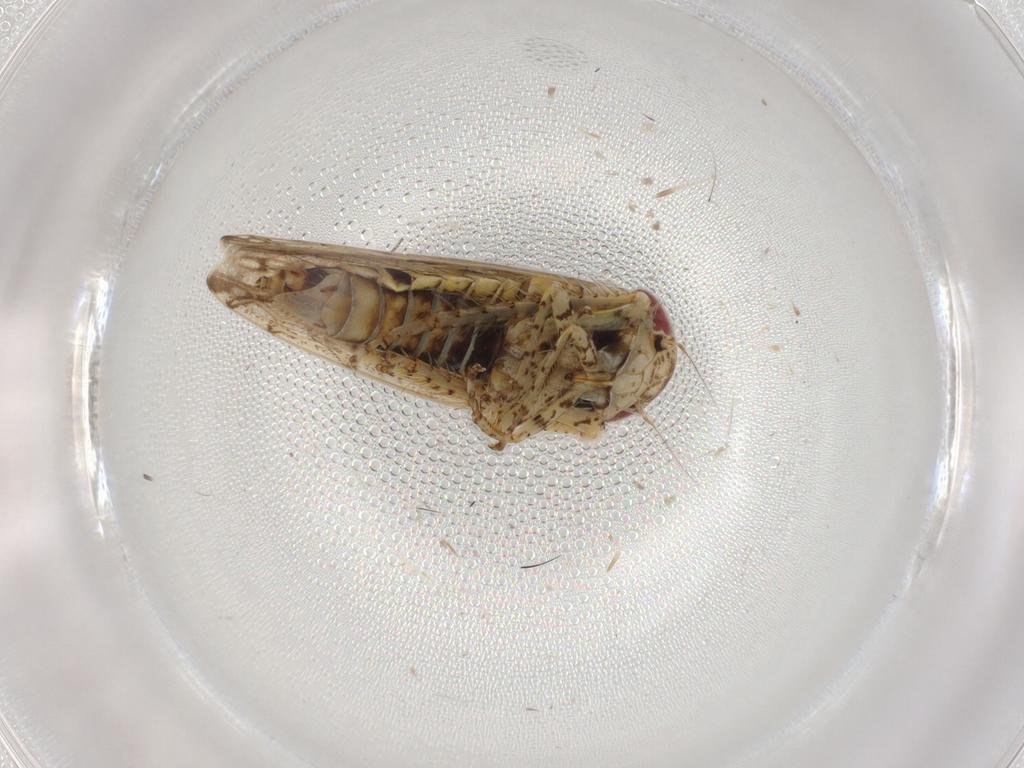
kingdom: Animalia
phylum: Arthropoda
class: Insecta
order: Hemiptera
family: Cicadellidae
